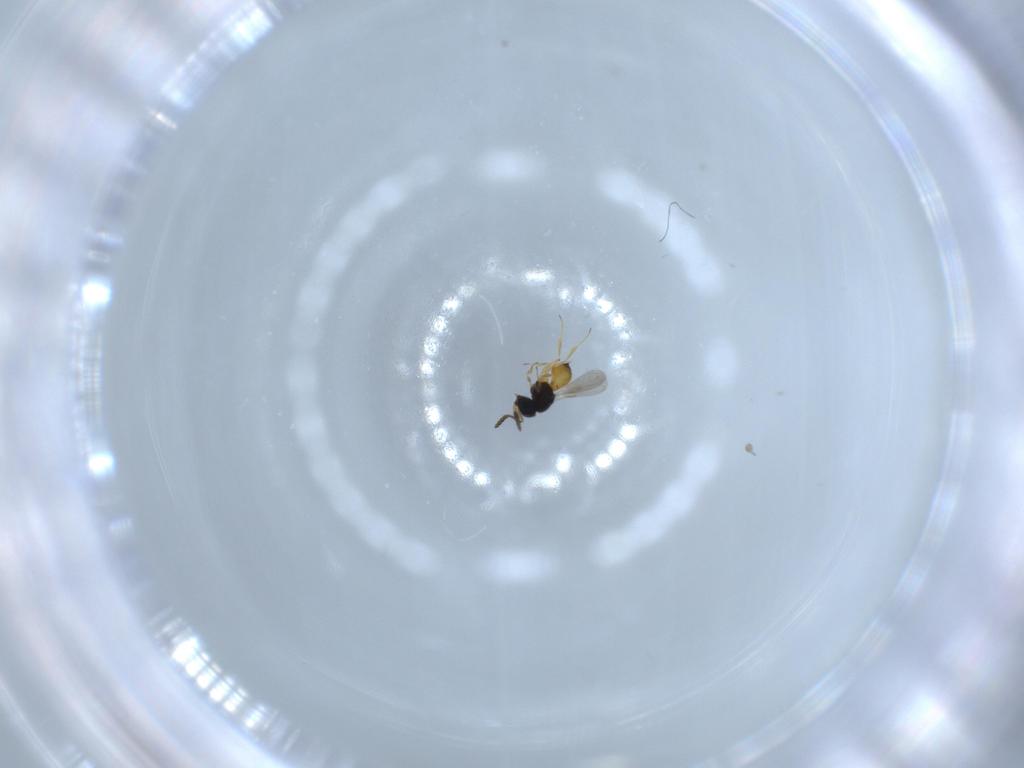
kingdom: Animalia
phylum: Arthropoda
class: Insecta
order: Hymenoptera
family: Scelionidae
